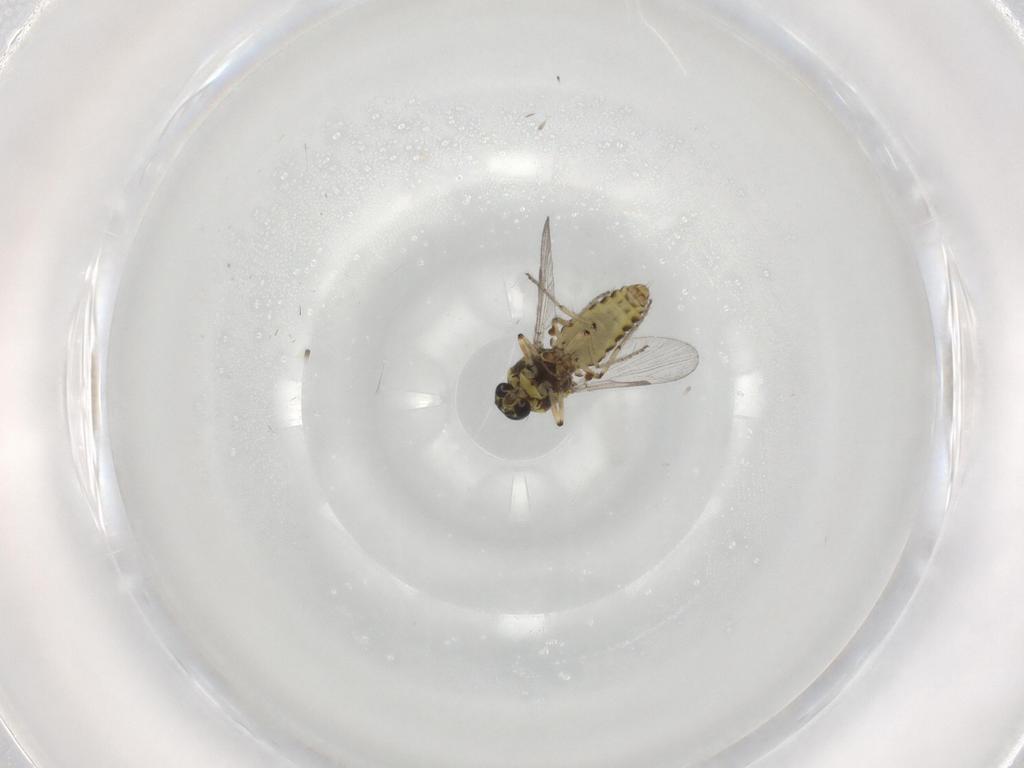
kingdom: Animalia
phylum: Arthropoda
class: Insecta
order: Diptera
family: Ceratopogonidae
